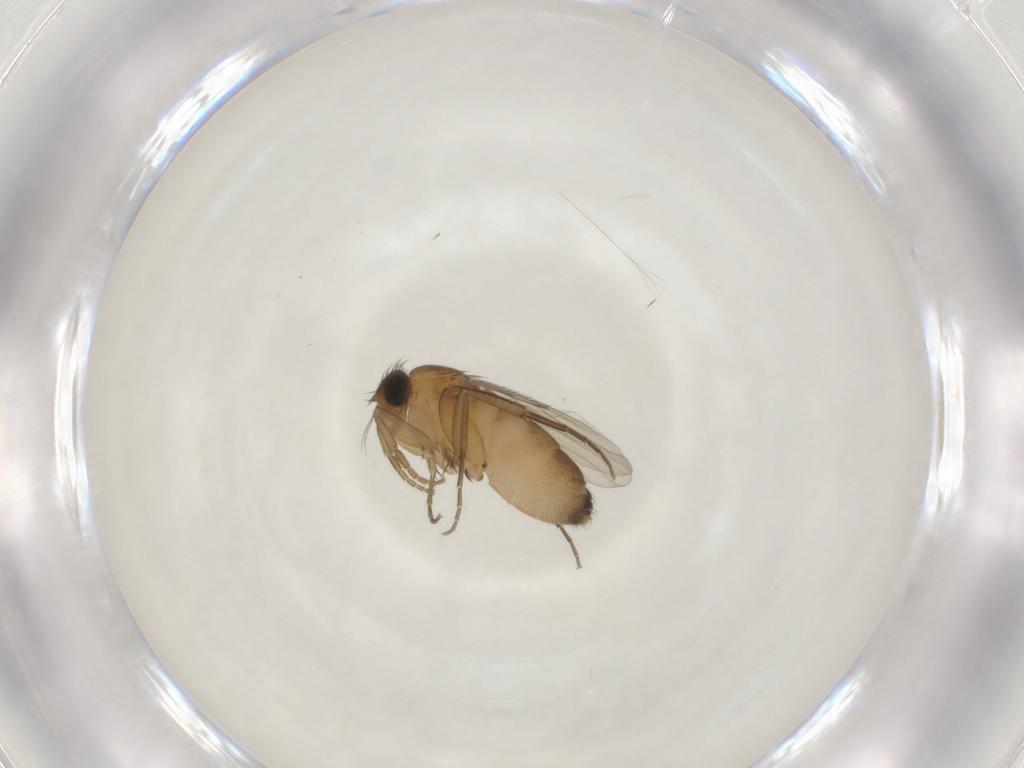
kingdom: Animalia
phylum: Arthropoda
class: Insecta
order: Diptera
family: Phoridae
